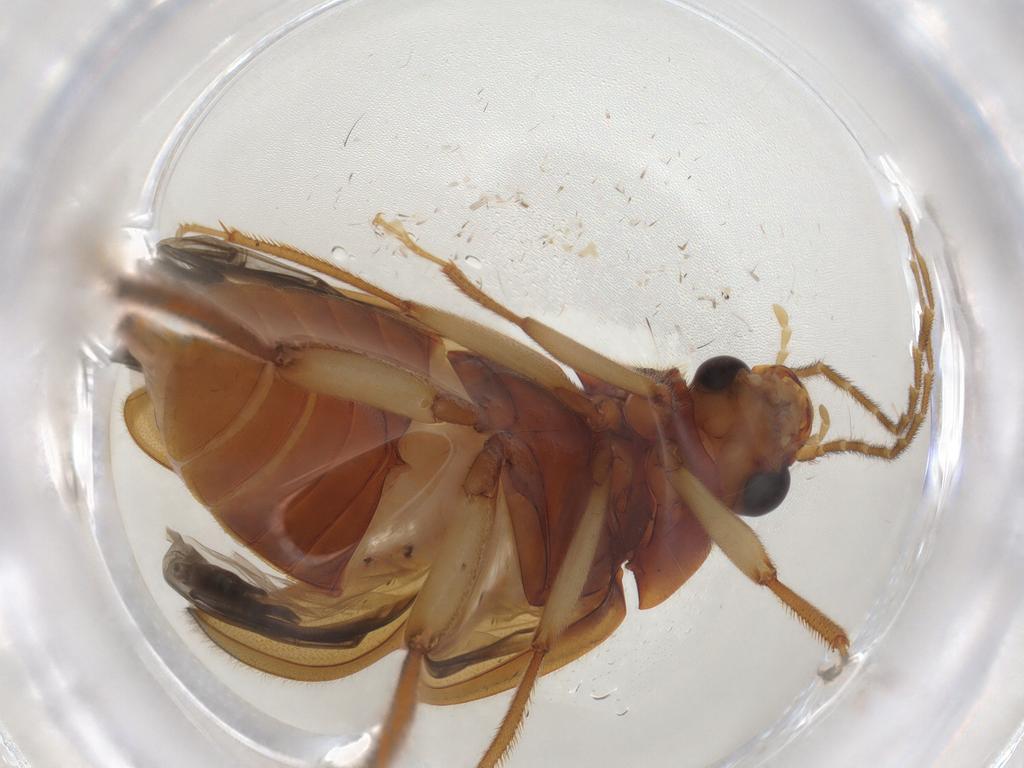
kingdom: Animalia
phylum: Arthropoda
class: Insecta
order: Coleoptera
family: Ptilodactylidae
